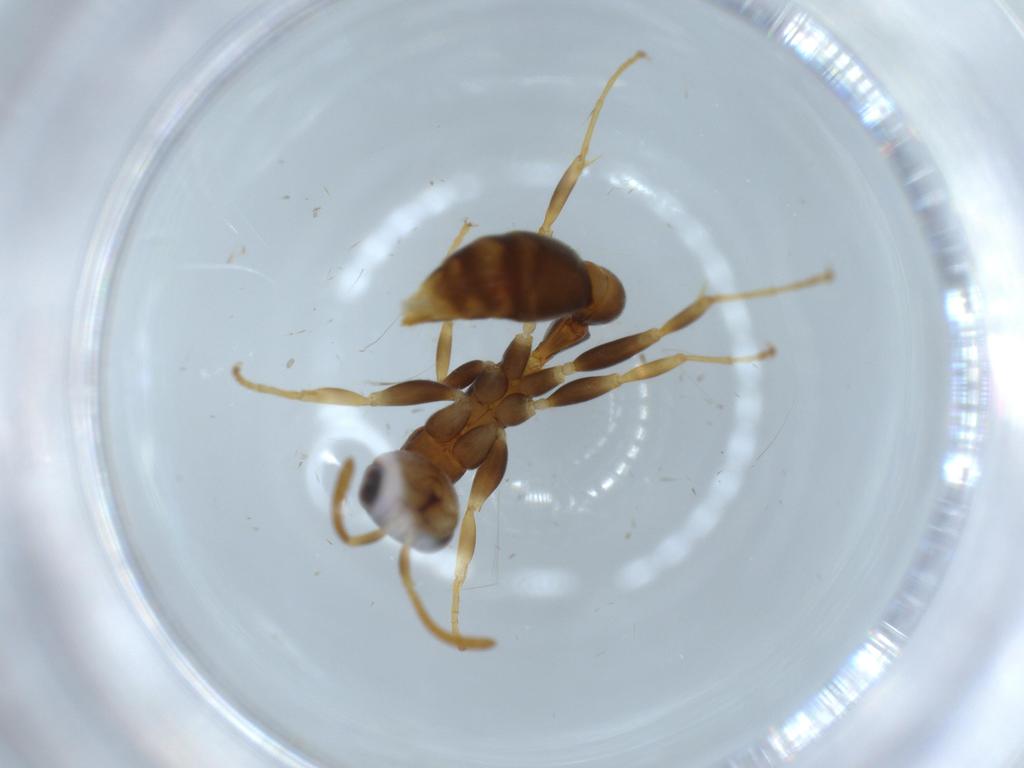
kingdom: Animalia
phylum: Arthropoda
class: Insecta
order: Hymenoptera
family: Formicidae
